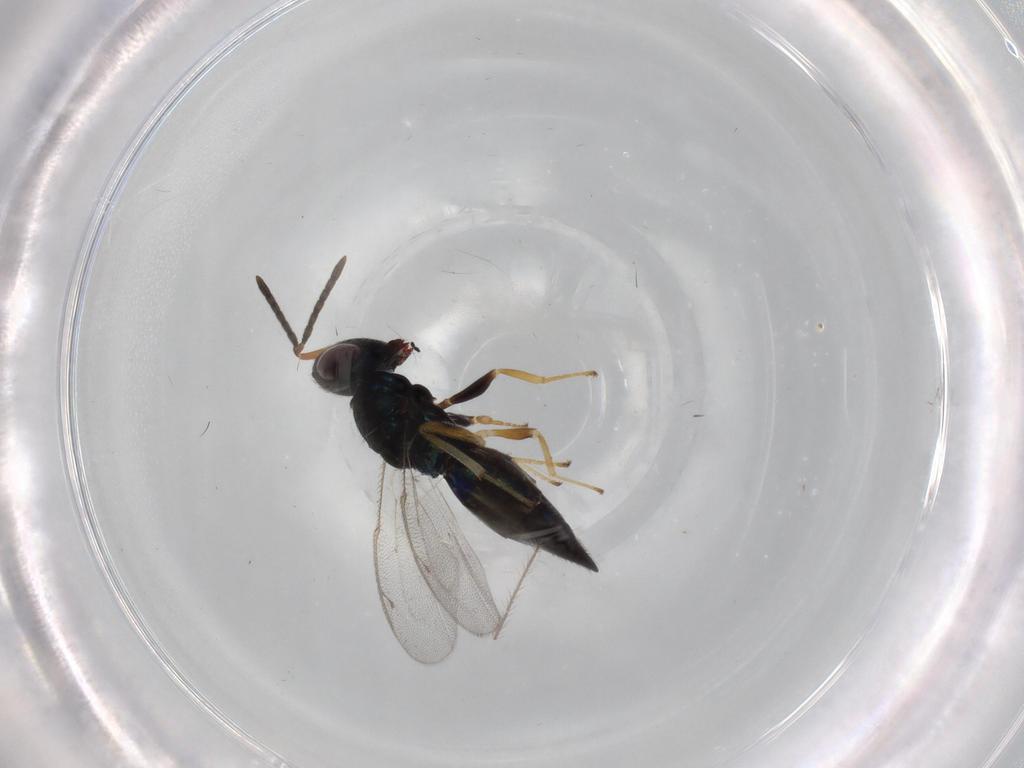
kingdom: Animalia
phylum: Arthropoda
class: Insecta
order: Psocodea
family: Epipsocidae
